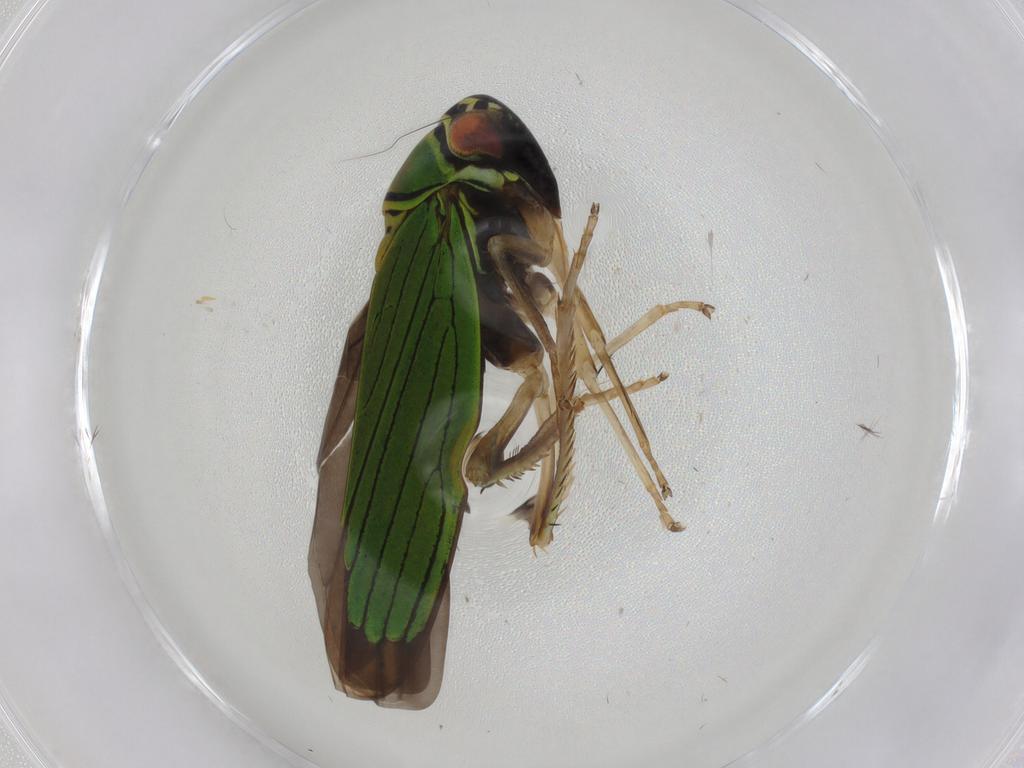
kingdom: Animalia
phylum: Arthropoda
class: Insecta
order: Hemiptera
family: Cicadellidae
